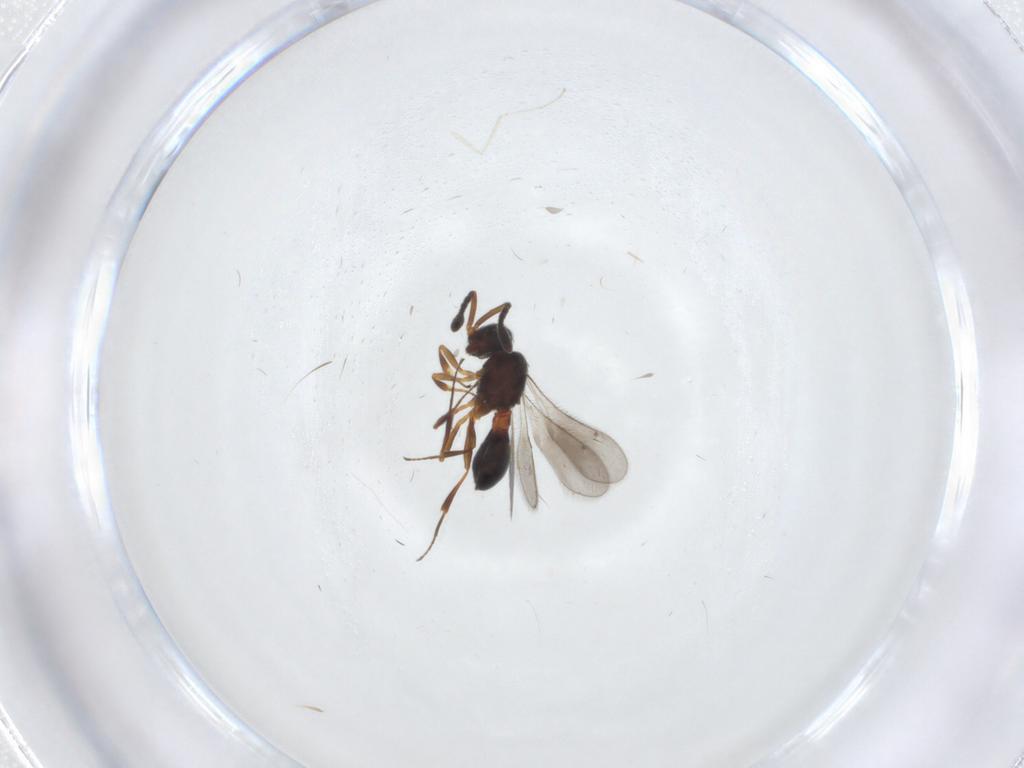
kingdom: Animalia
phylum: Arthropoda
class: Insecta
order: Hymenoptera
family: Scelionidae
